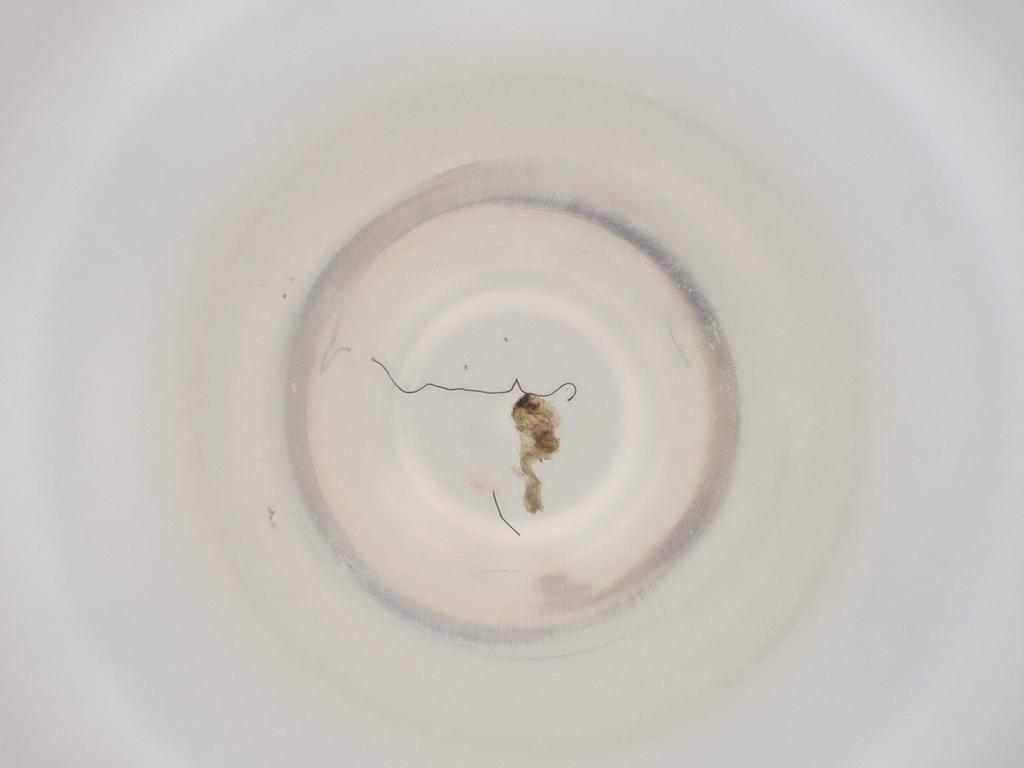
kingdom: Animalia
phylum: Arthropoda
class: Insecta
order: Diptera
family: Cecidomyiidae
